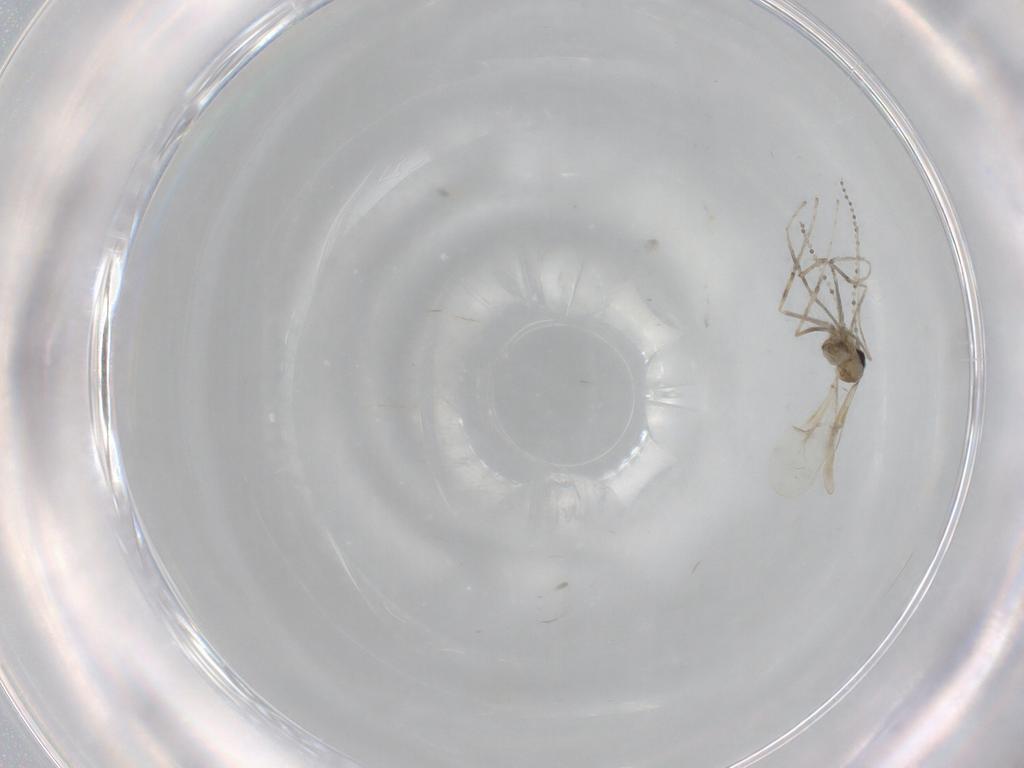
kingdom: Animalia
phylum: Arthropoda
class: Insecta
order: Diptera
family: Cecidomyiidae
